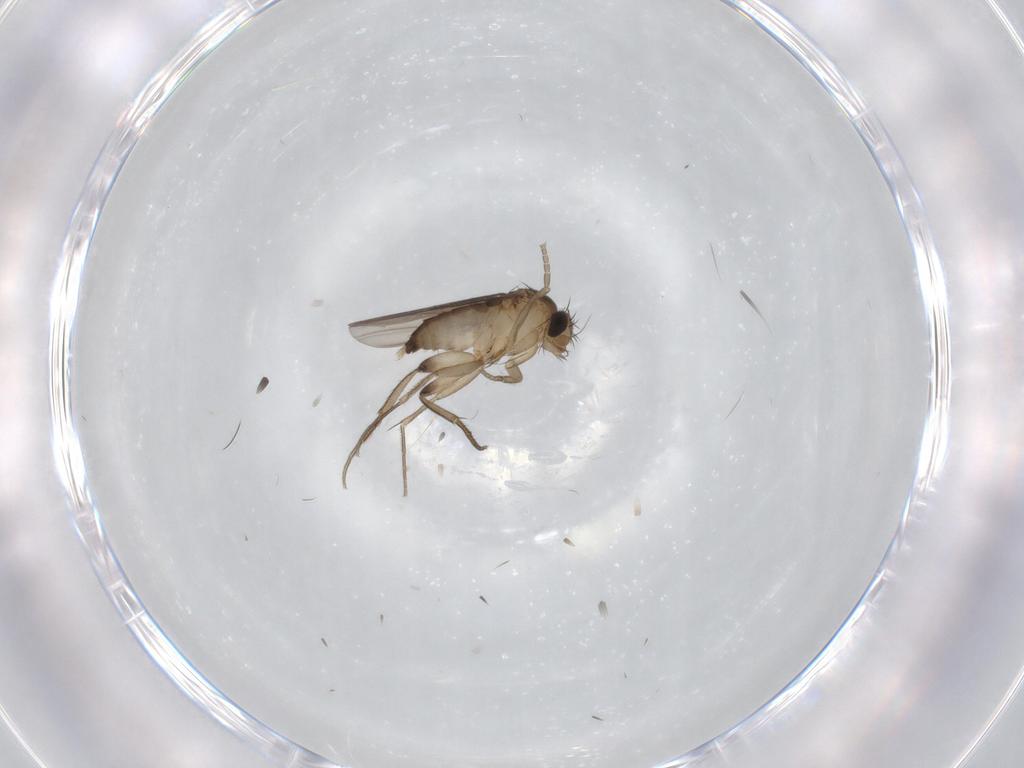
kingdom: Animalia
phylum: Arthropoda
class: Insecta
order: Diptera
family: Phoridae
